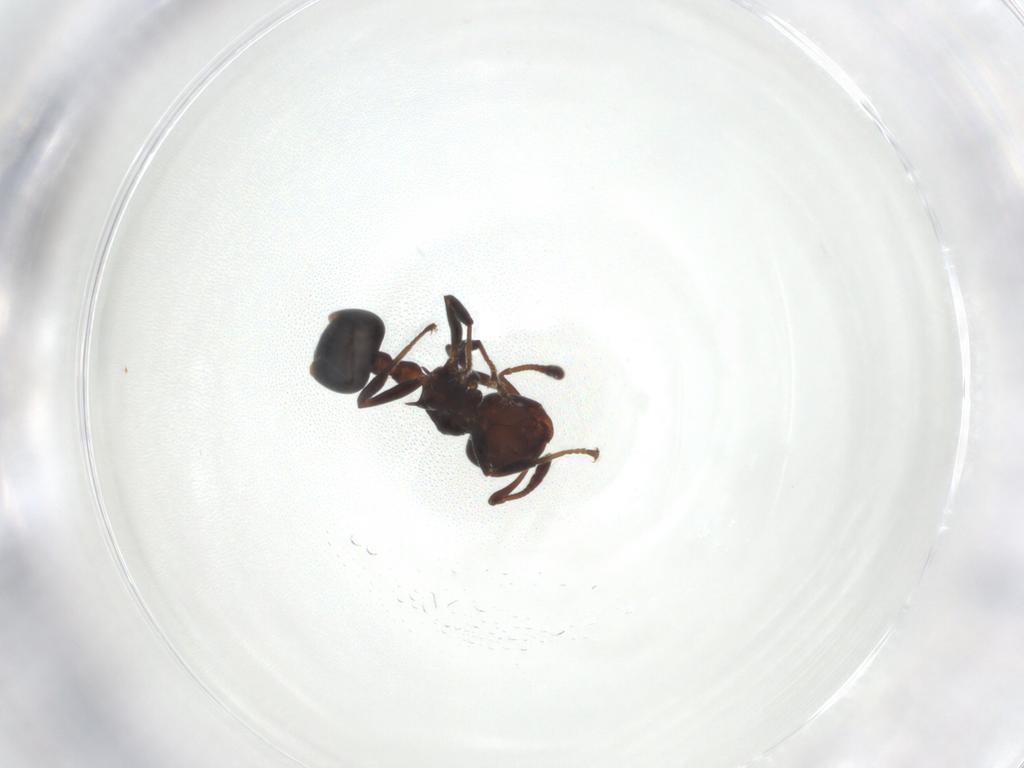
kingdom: Animalia
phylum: Arthropoda
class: Insecta
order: Hymenoptera
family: Formicidae
